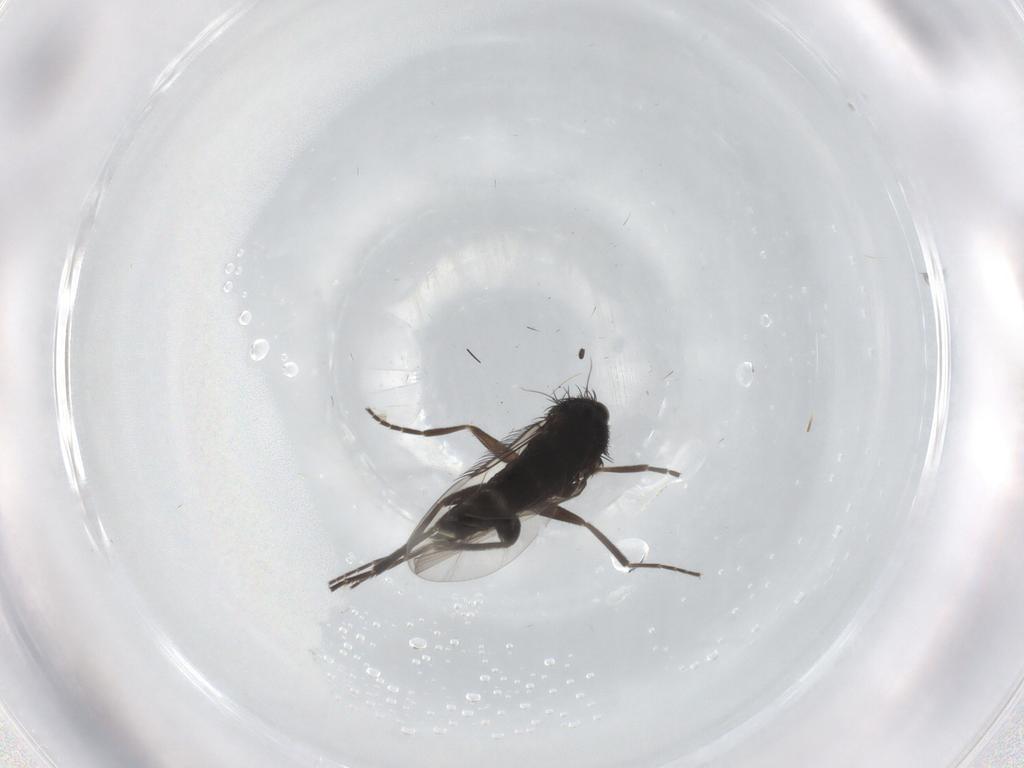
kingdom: Animalia
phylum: Arthropoda
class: Insecta
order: Diptera
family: Phoridae
